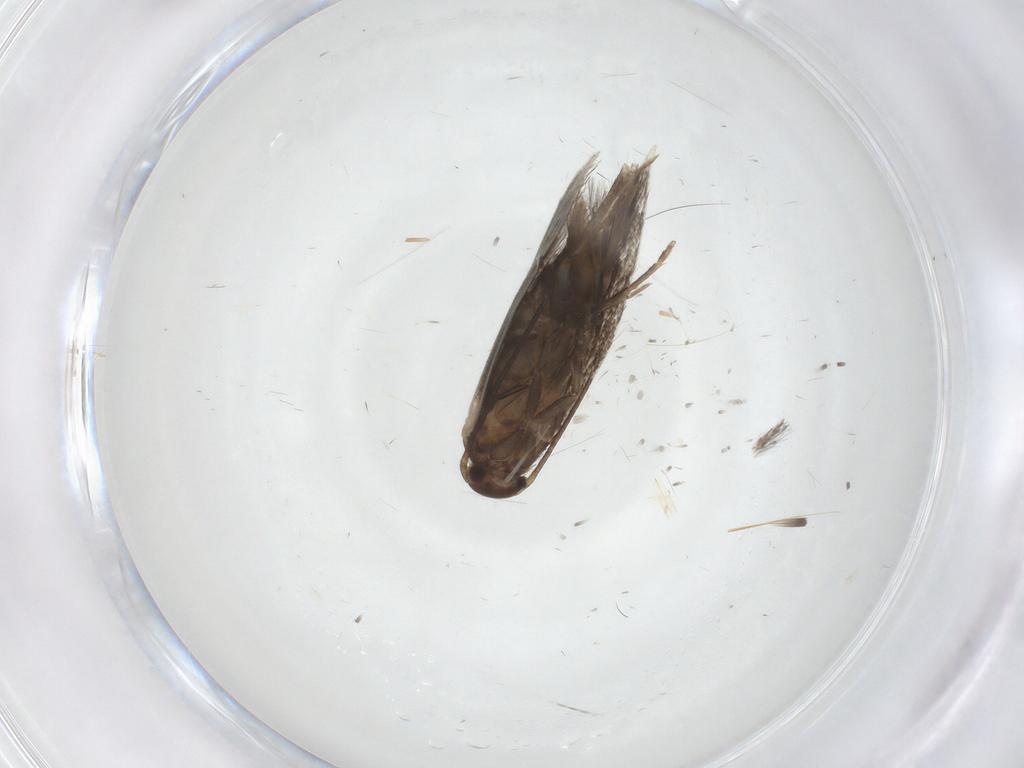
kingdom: Animalia
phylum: Arthropoda
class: Insecta
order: Lepidoptera
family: Elachistidae
